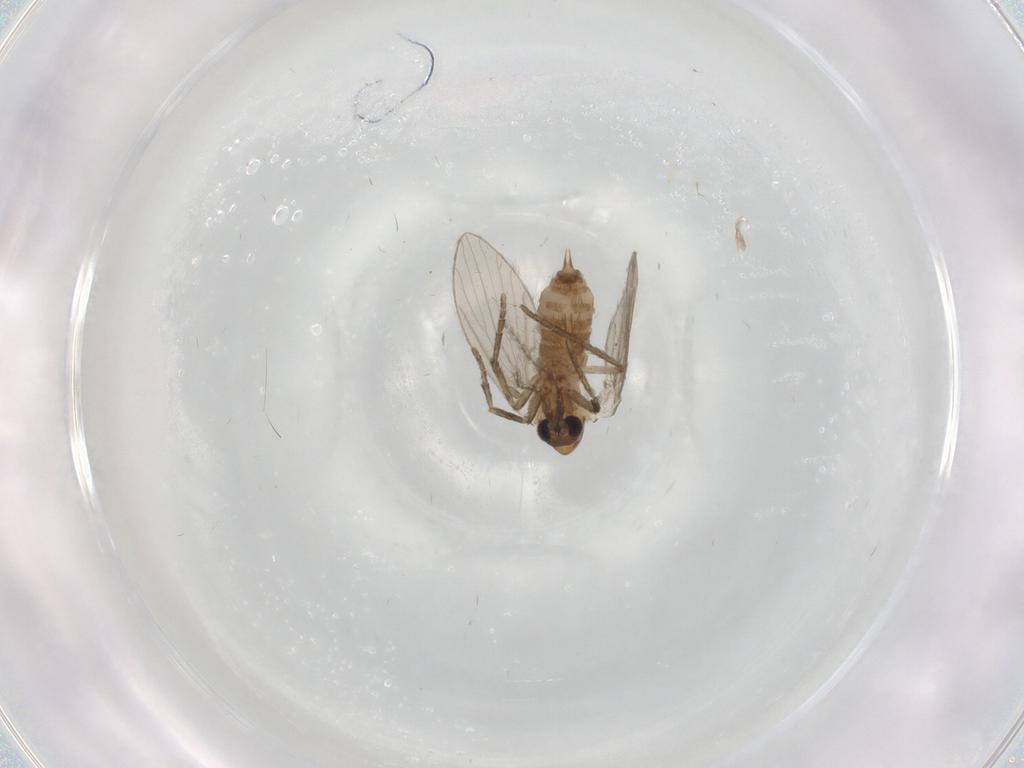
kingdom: Animalia
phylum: Arthropoda
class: Insecta
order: Diptera
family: Psychodidae
